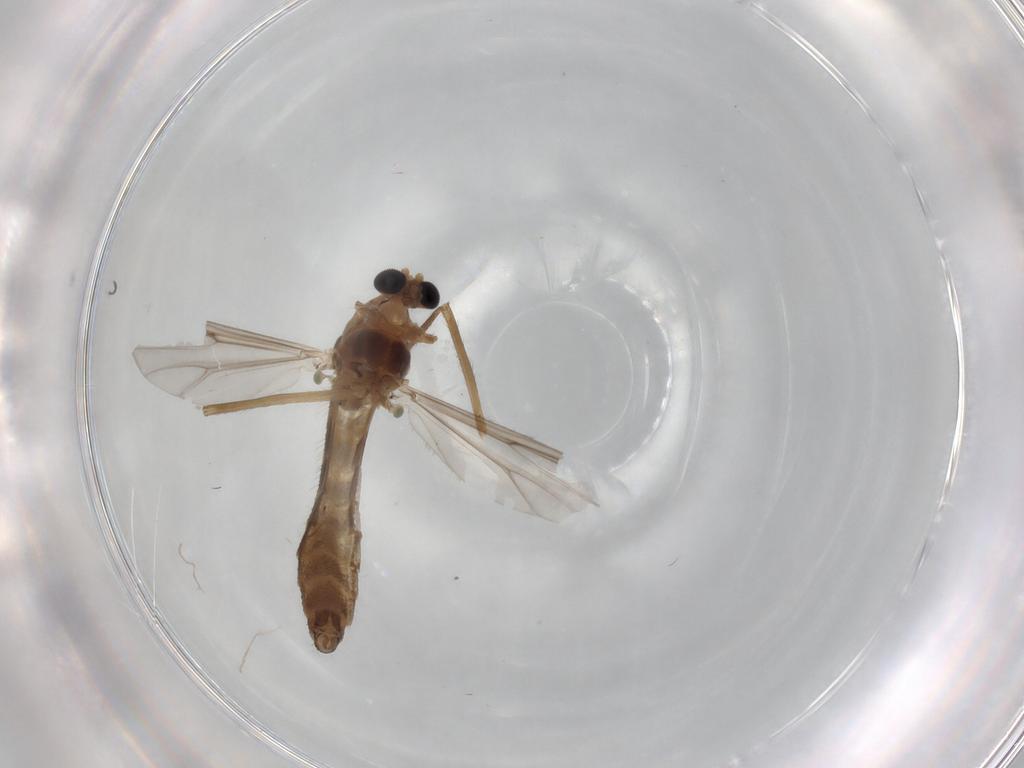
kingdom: Animalia
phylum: Arthropoda
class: Insecta
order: Diptera
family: Chironomidae
